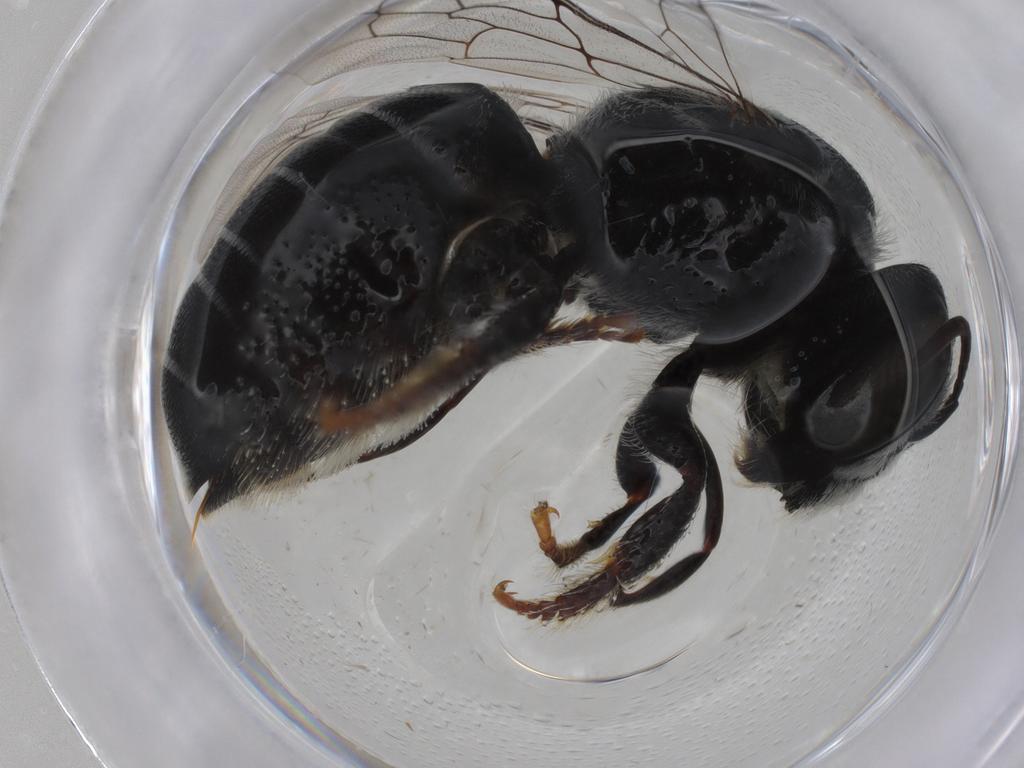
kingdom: Animalia
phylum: Arthropoda
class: Insecta
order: Hymenoptera
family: Megachilidae
